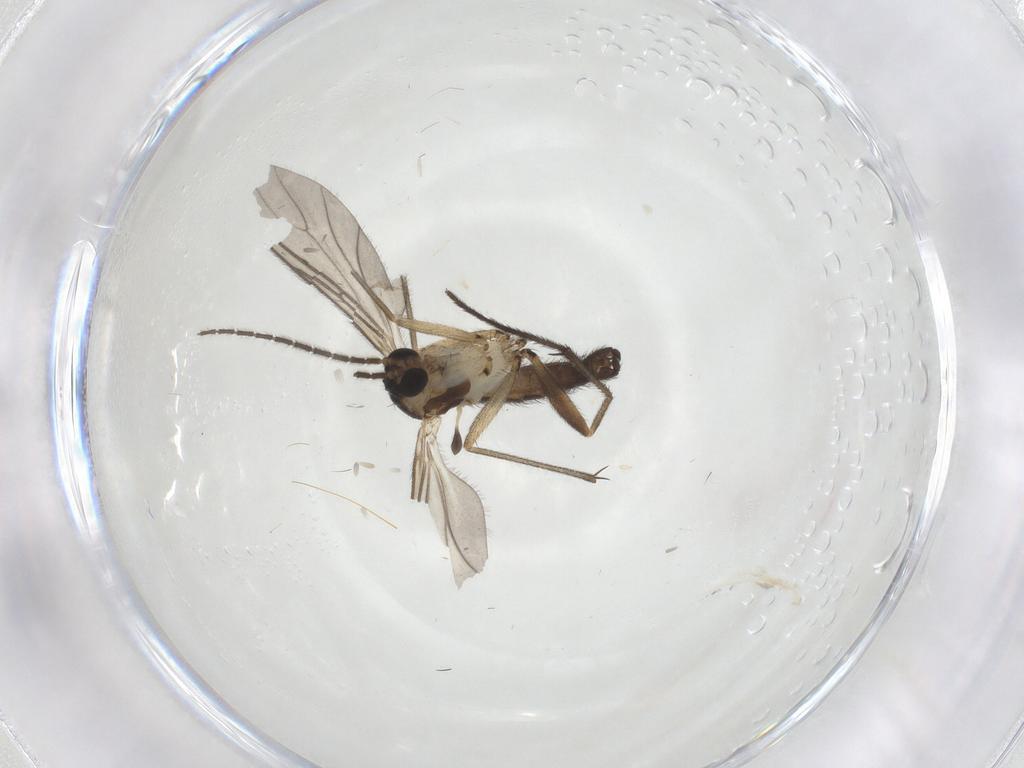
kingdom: Animalia
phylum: Arthropoda
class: Insecta
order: Diptera
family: Sciaridae
